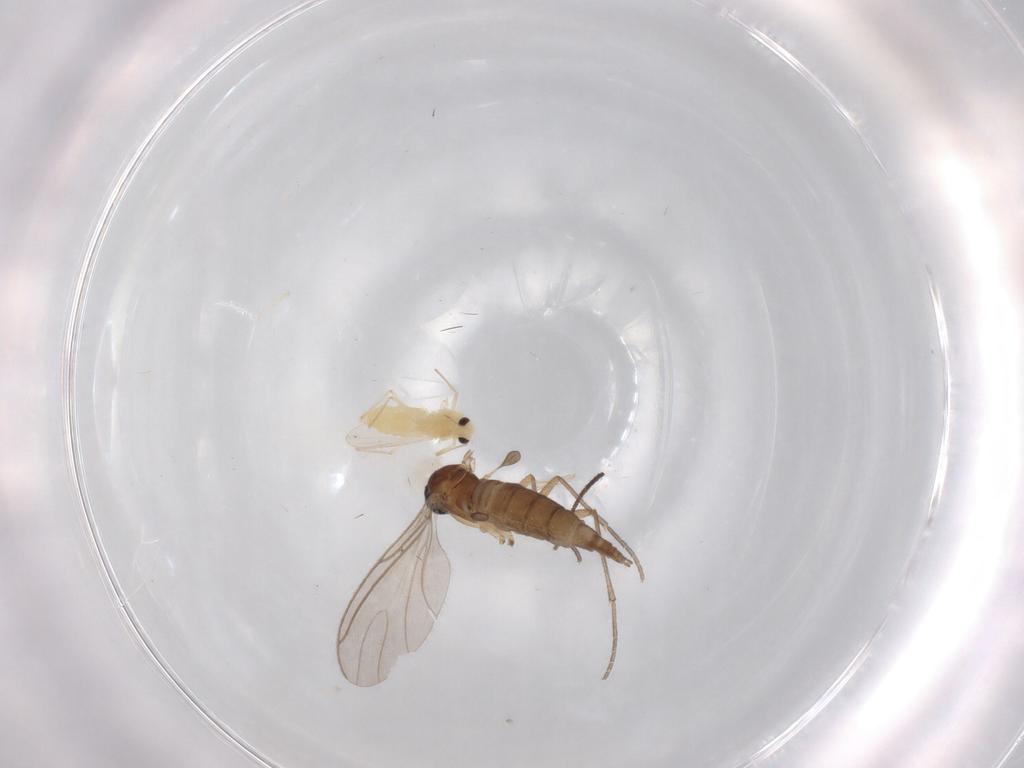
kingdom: Animalia
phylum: Arthropoda
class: Insecta
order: Diptera
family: Sciaridae
